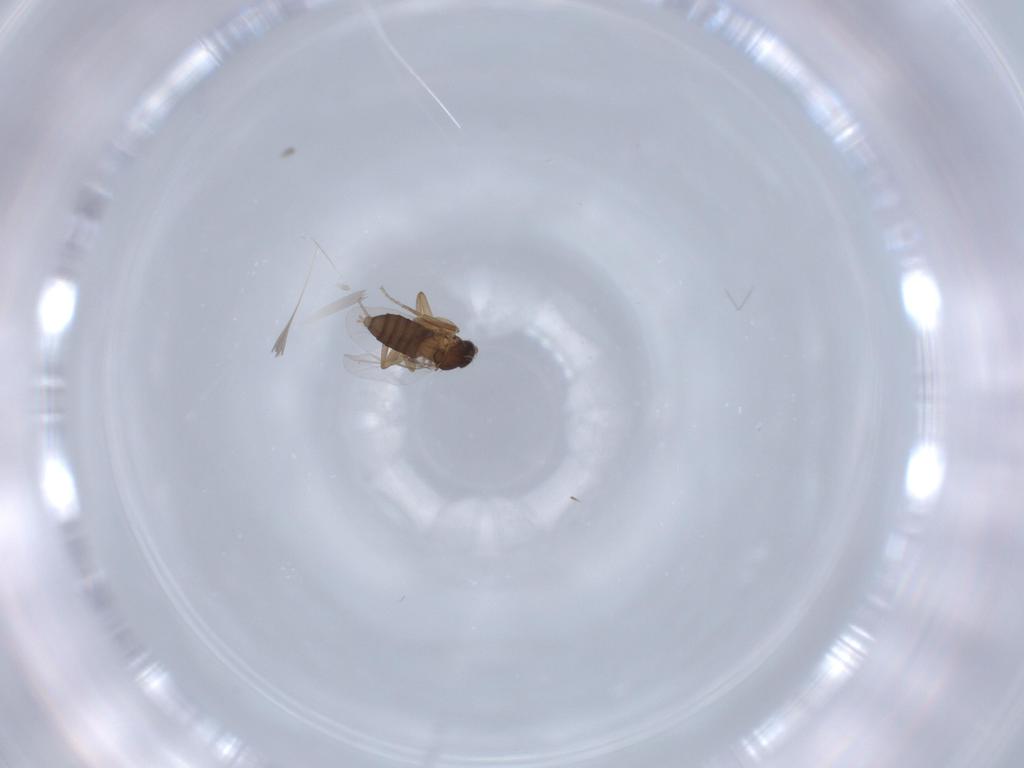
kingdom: Animalia
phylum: Arthropoda
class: Insecta
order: Diptera
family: Phoridae
